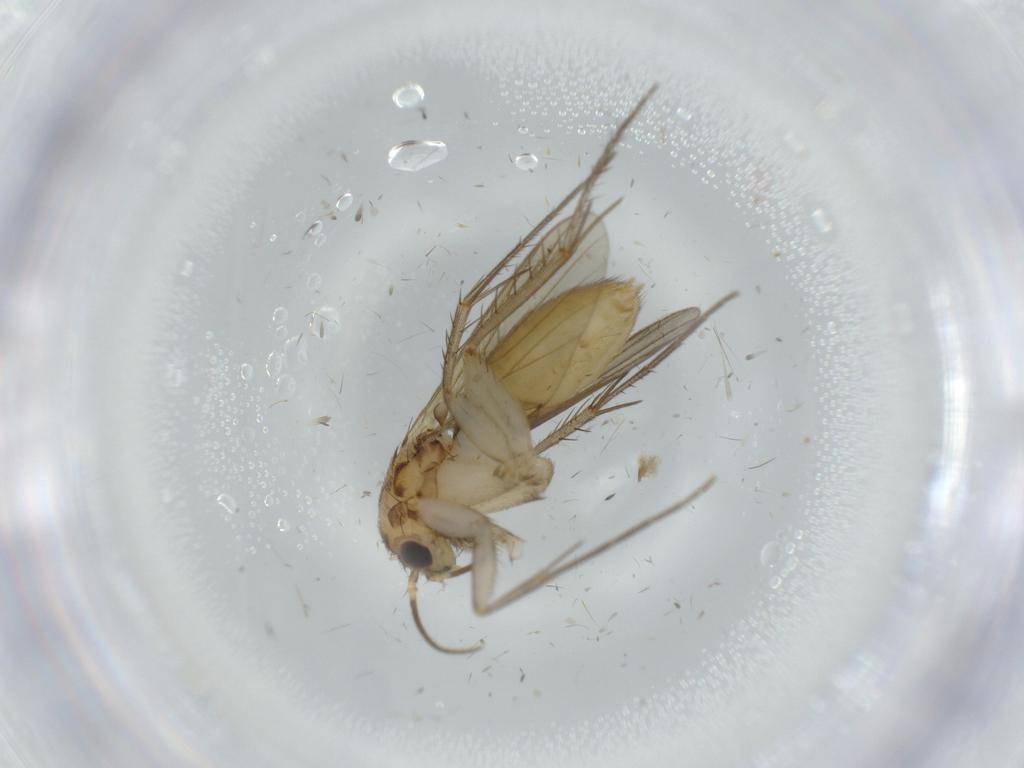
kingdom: Animalia
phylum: Arthropoda
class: Insecta
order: Diptera
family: Mycetophilidae
